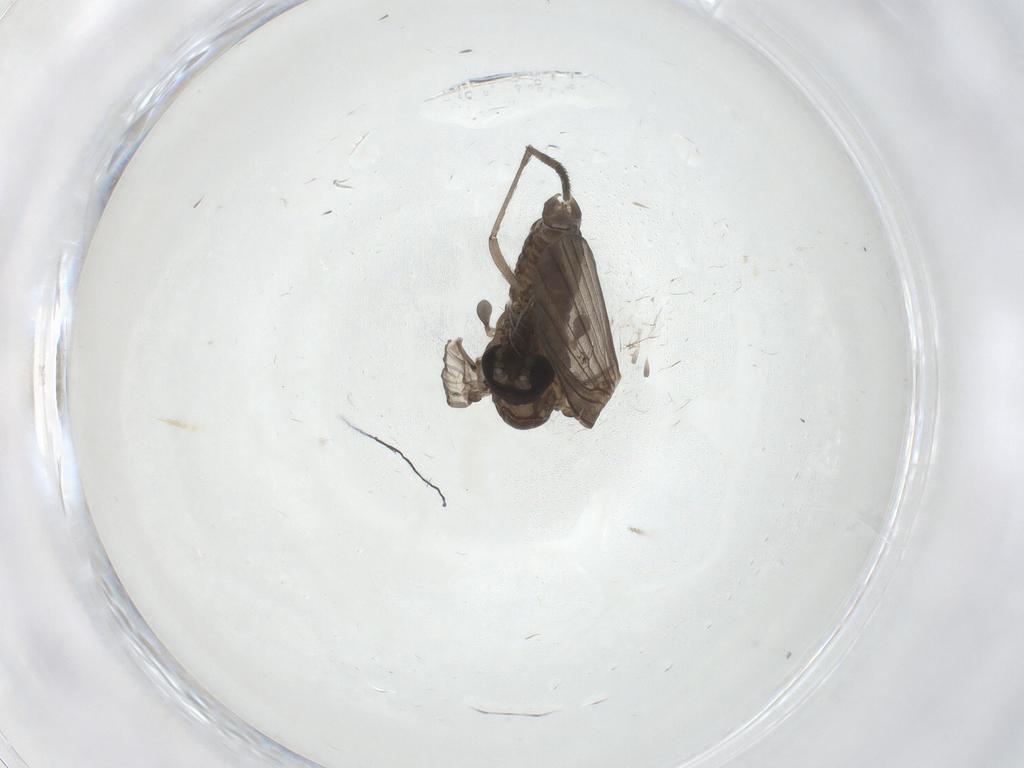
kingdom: Animalia
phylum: Arthropoda
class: Insecta
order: Diptera
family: Psychodidae
